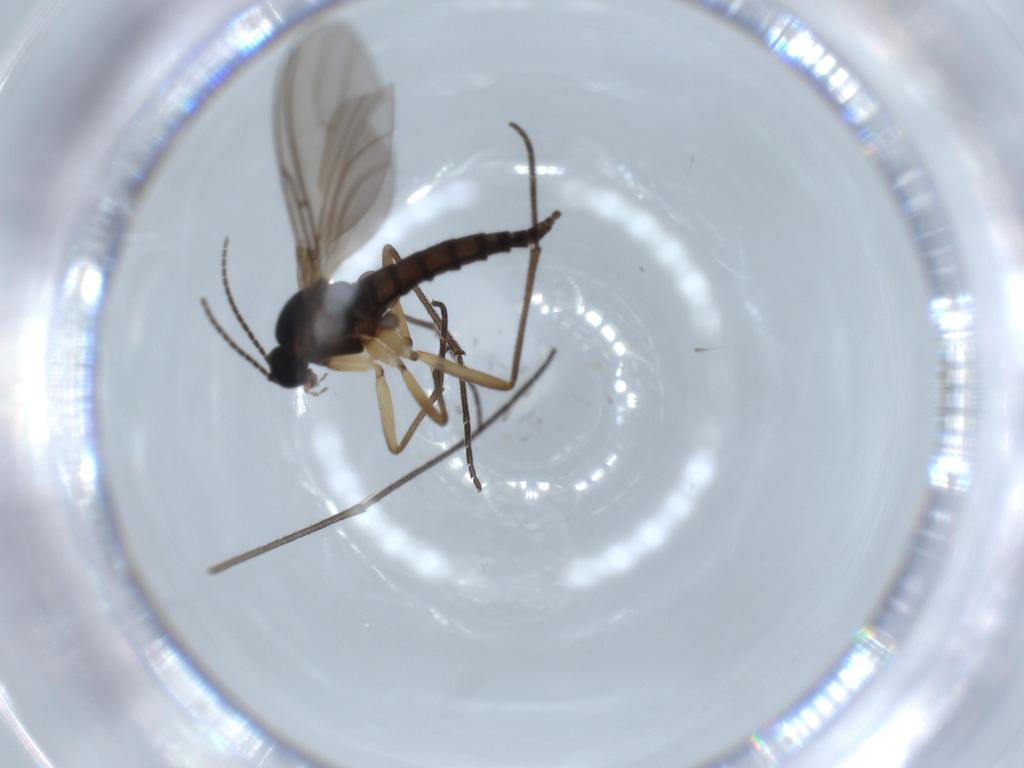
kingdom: Animalia
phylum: Arthropoda
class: Insecta
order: Diptera
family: Sciaridae
